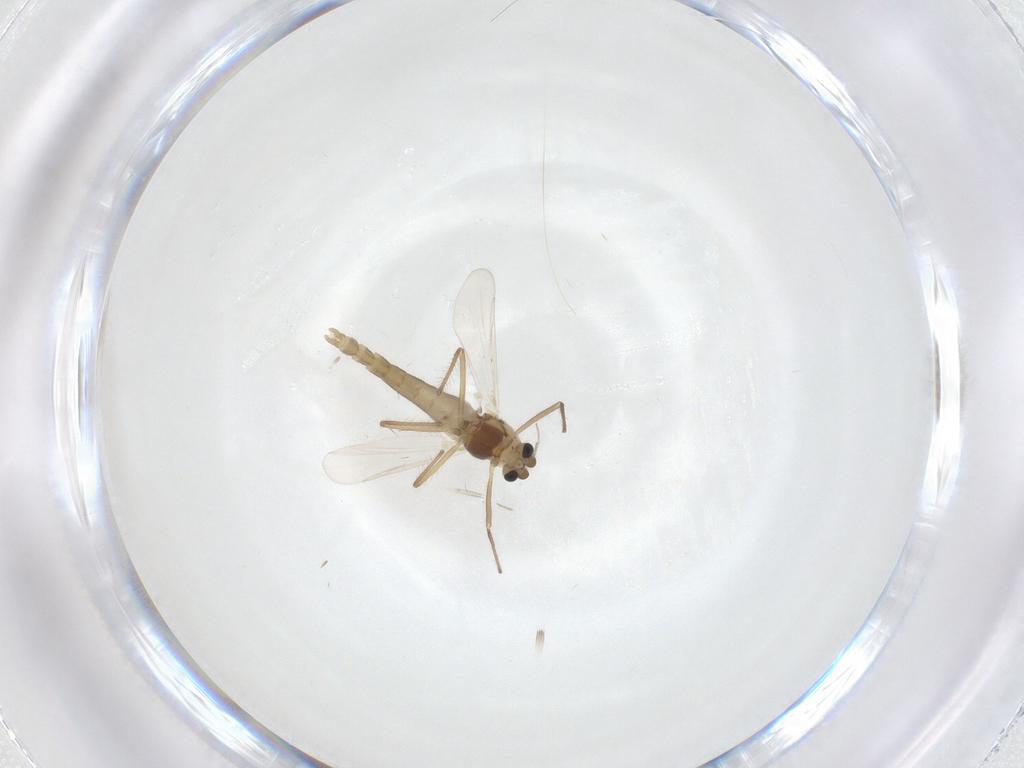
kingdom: Animalia
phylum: Arthropoda
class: Insecta
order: Diptera
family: Chironomidae
